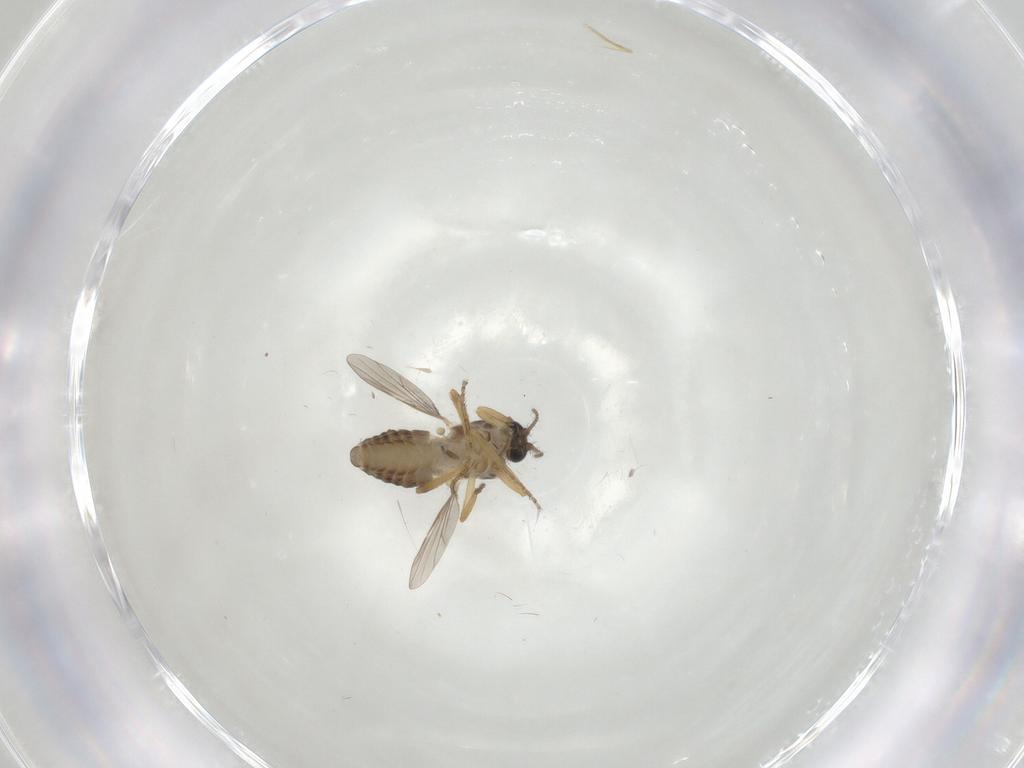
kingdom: Animalia
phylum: Arthropoda
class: Insecta
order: Diptera
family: Ceratopogonidae
